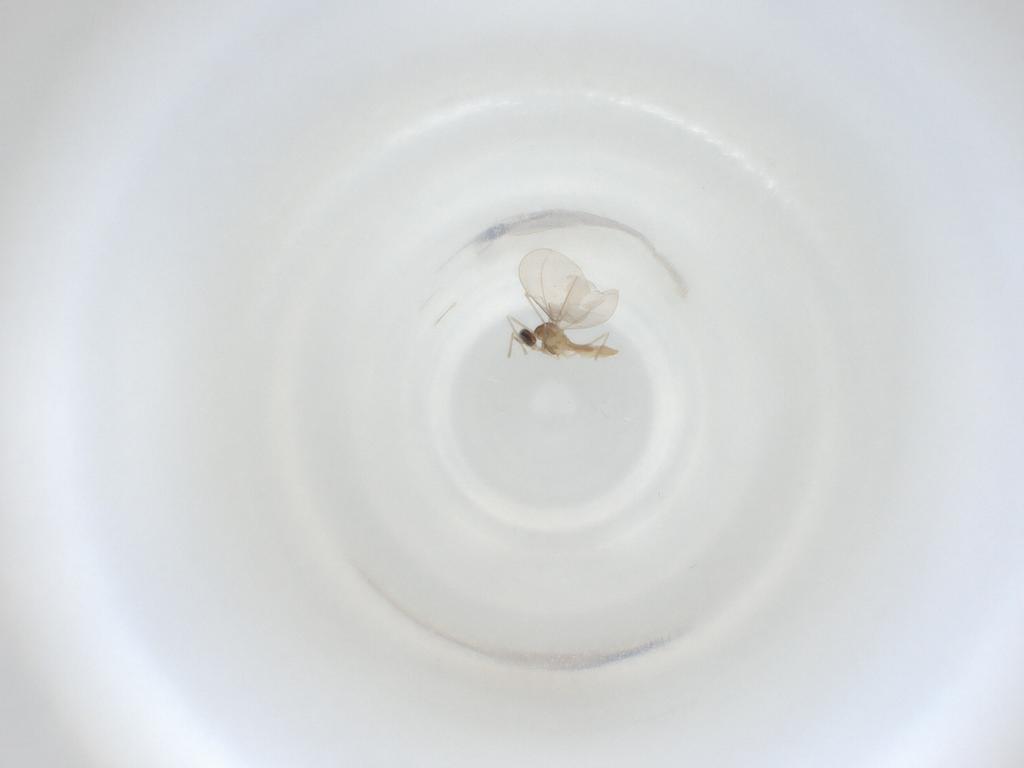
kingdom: Animalia
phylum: Arthropoda
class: Insecta
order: Diptera
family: Cecidomyiidae
